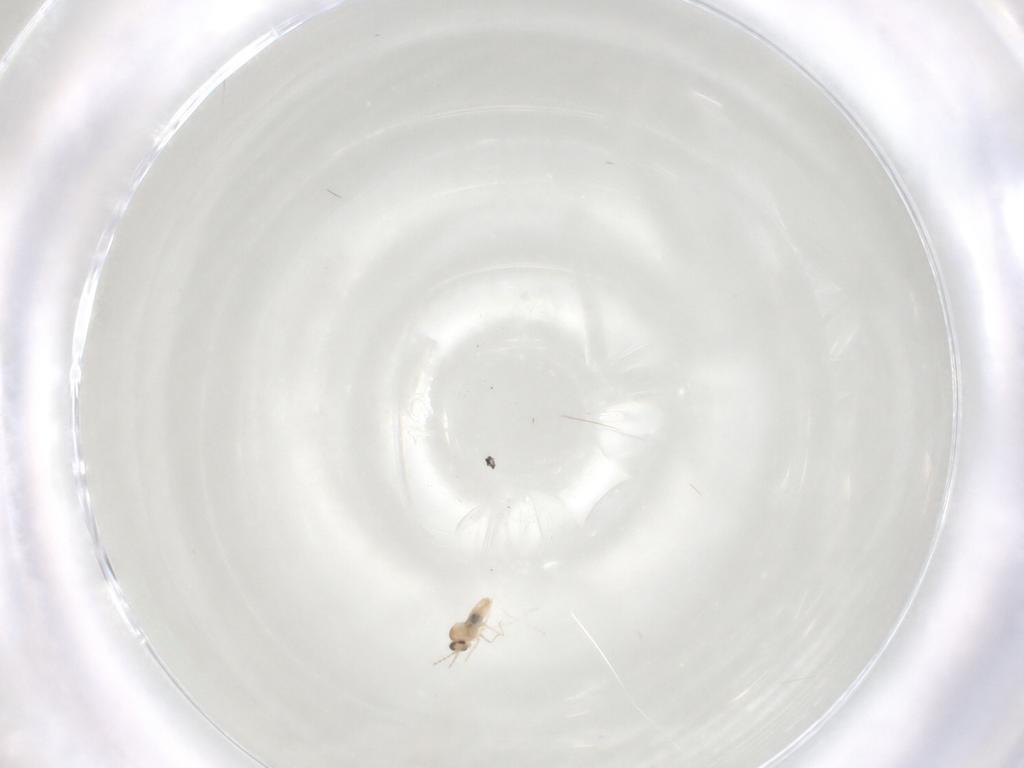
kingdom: Animalia
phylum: Arthropoda
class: Insecta
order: Diptera
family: Cecidomyiidae
